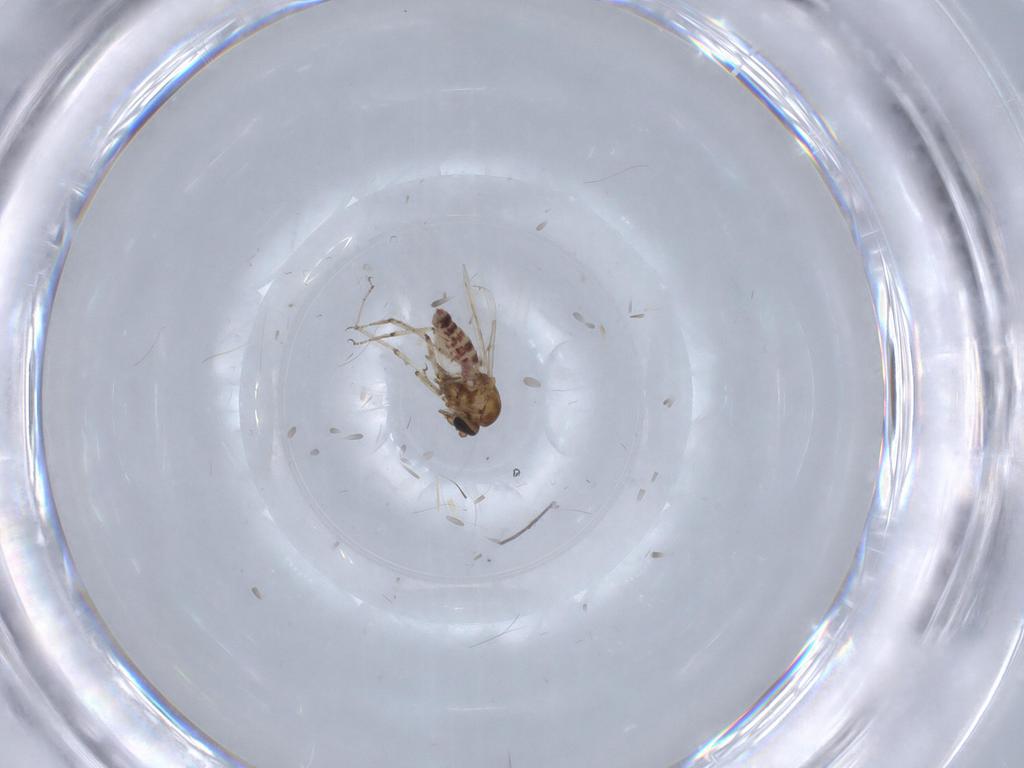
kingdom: Animalia
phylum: Arthropoda
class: Insecta
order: Diptera
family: Ceratopogonidae
